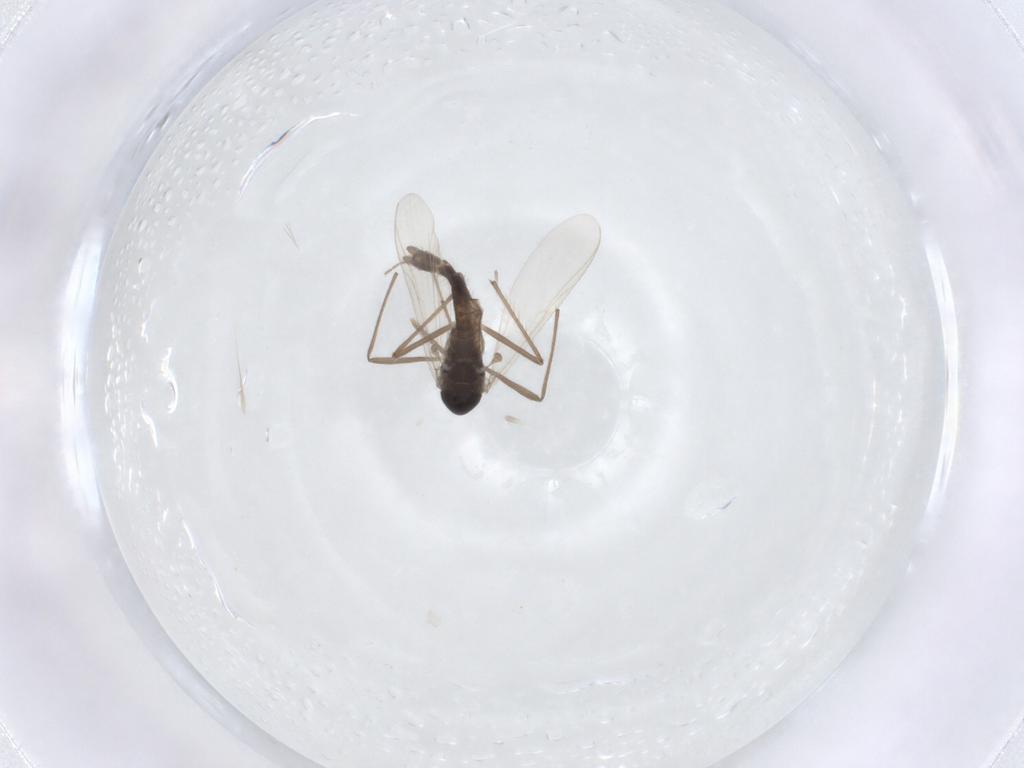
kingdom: Animalia
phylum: Arthropoda
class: Insecta
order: Diptera
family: Chironomidae
